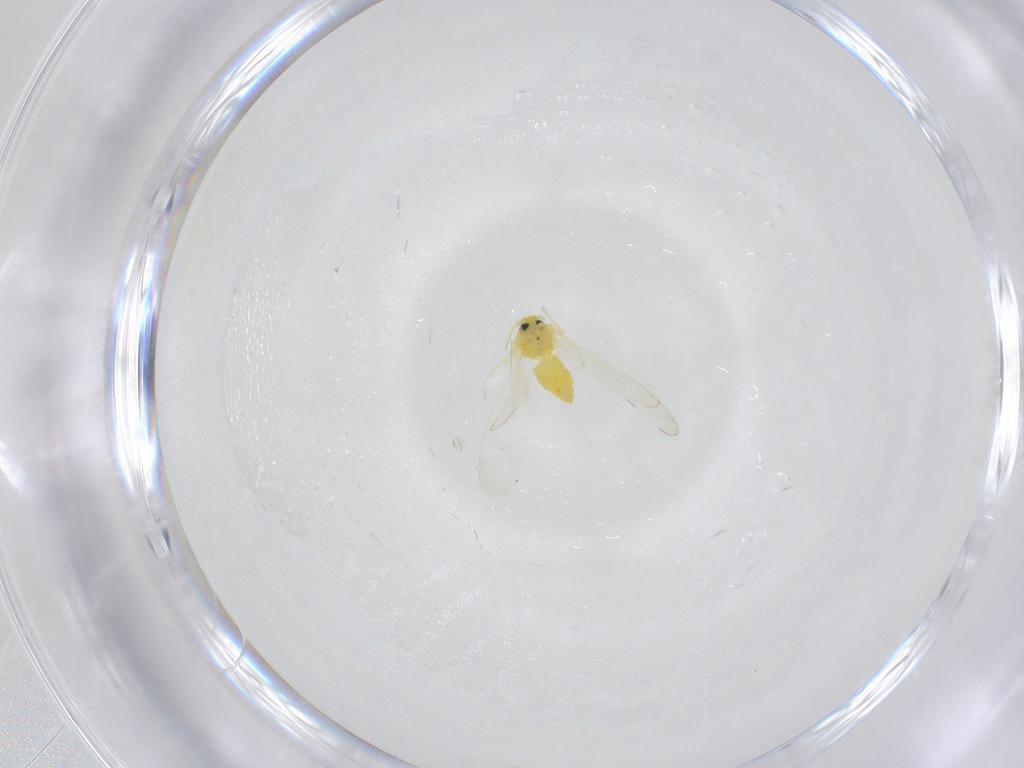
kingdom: Animalia
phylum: Arthropoda
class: Insecta
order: Hemiptera
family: Aleyrodidae
